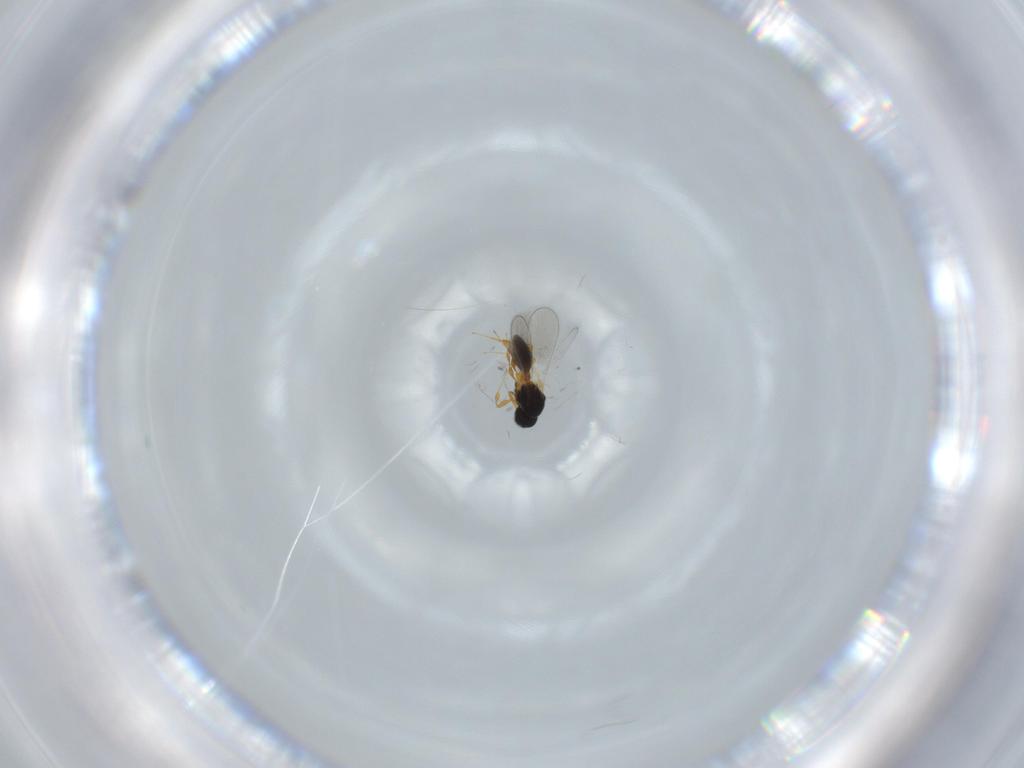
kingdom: Animalia
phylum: Arthropoda
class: Insecta
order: Hymenoptera
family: Platygastridae
